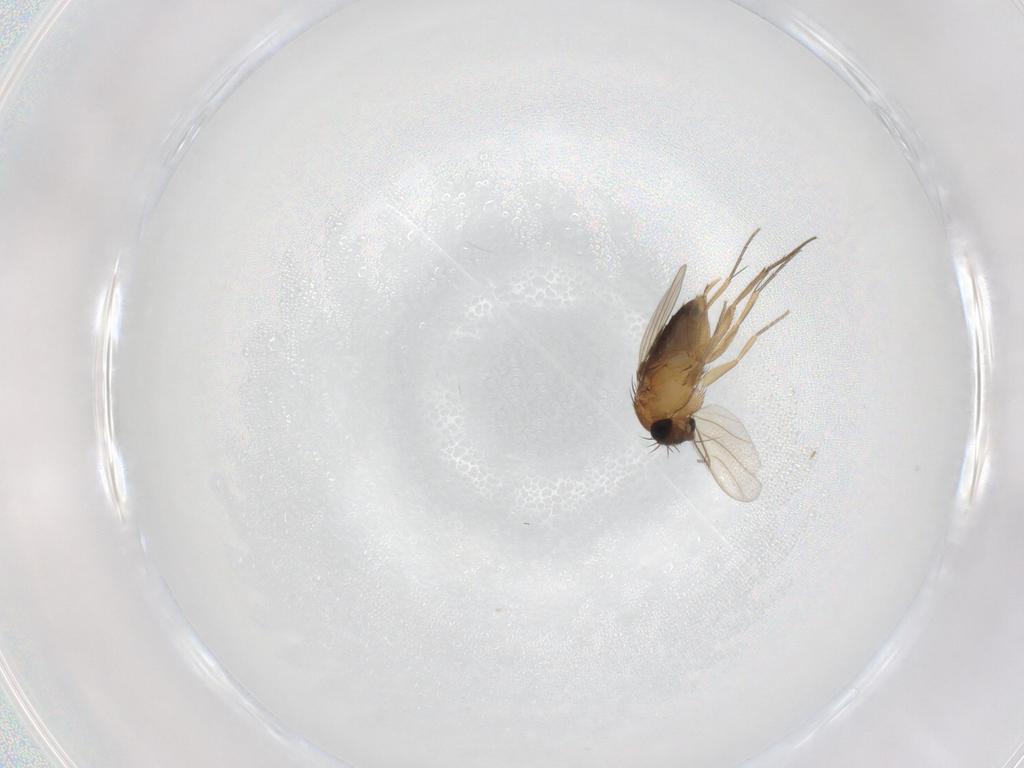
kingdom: Animalia
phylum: Arthropoda
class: Insecta
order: Diptera
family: Phoridae
